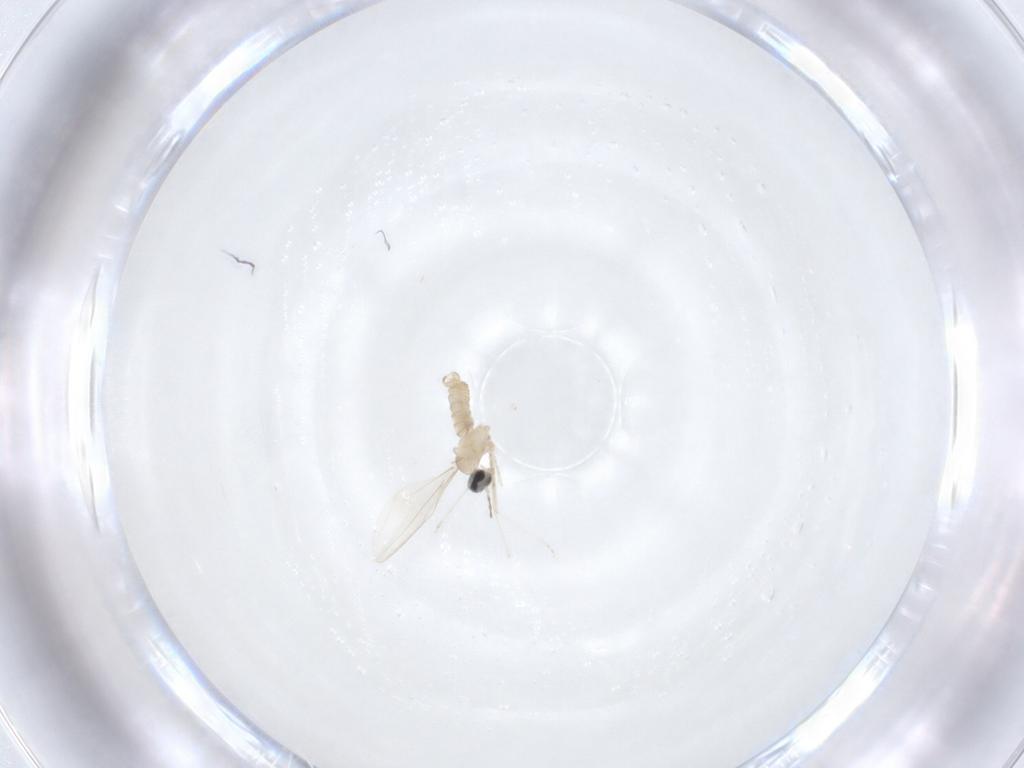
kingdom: Animalia
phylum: Arthropoda
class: Insecta
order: Diptera
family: Cecidomyiidae
